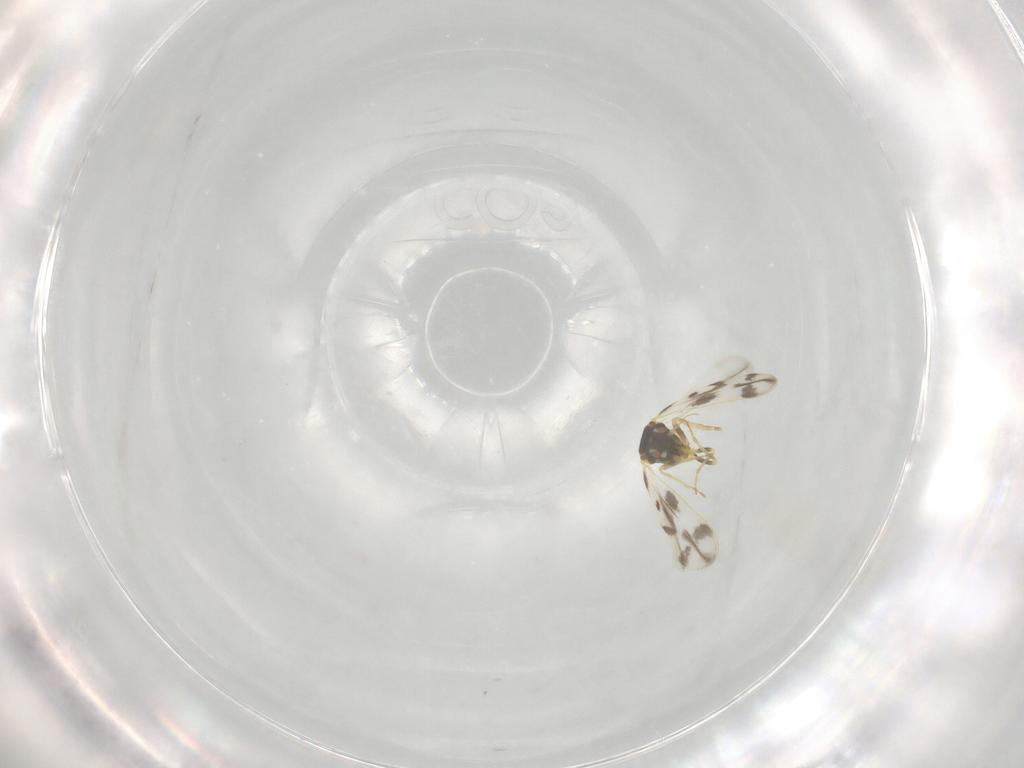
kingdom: Animalia
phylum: Arthropoda
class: Insecta
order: Hemiptera
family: Aleyrodidae
